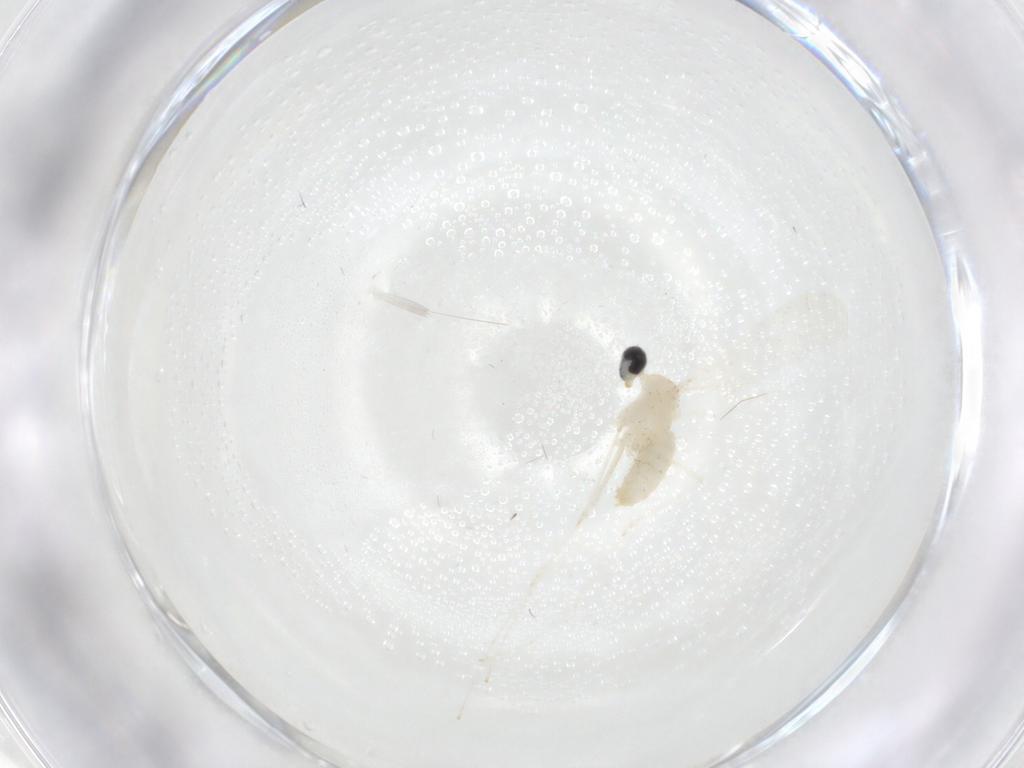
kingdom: Animalia
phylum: Arthropoda
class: Insecta
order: Diptera
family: Cecidomyiidae
